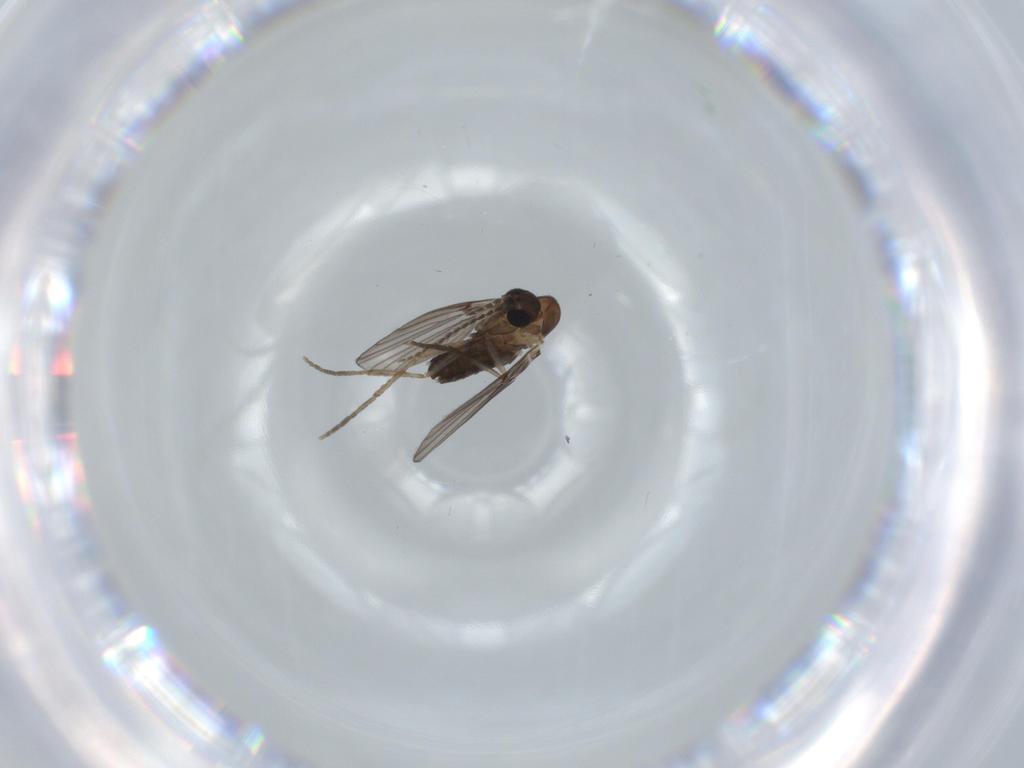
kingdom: Animalia
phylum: Arthropoda
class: Insecta
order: Diptera
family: Psychodidae
